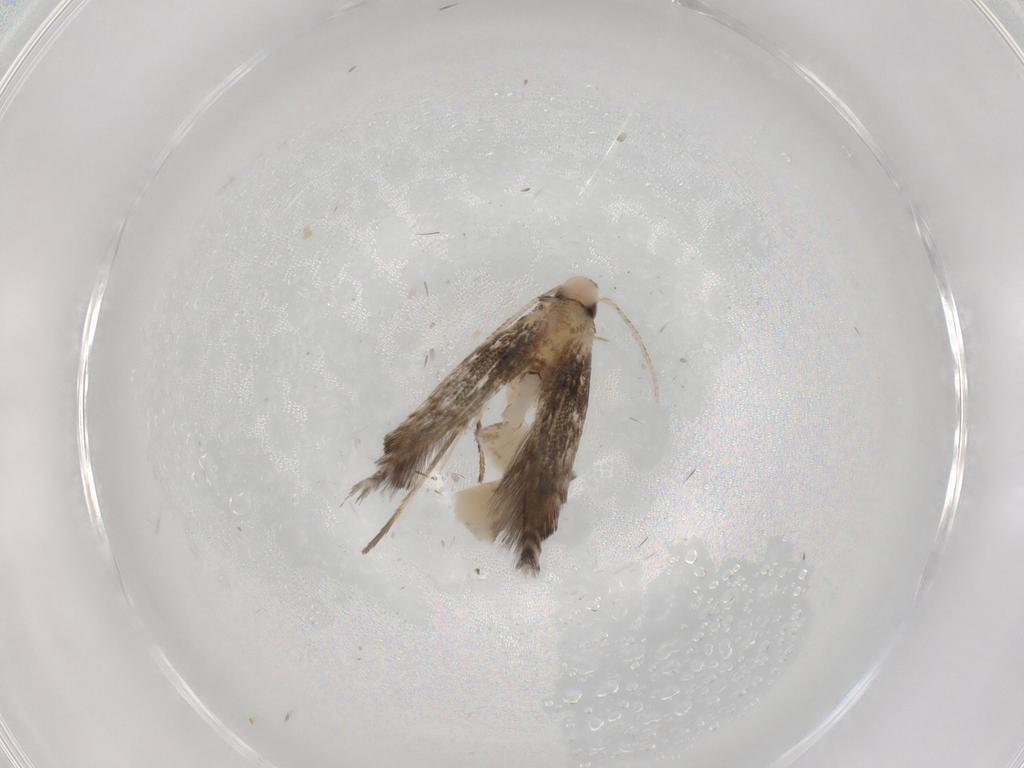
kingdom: Animalia
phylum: Arthropoda
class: Insecta
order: Lepidoptera
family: Gracillariidae
